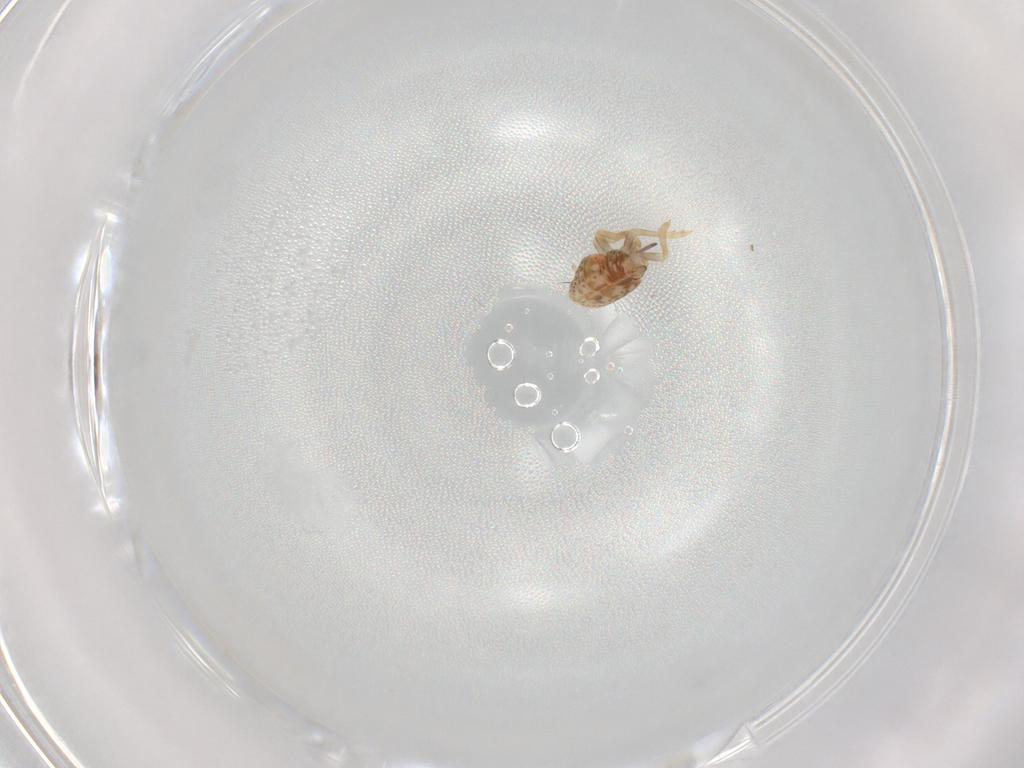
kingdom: Animalia
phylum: Arthropoda
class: Insecta
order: Hemiptera
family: Flatidae
